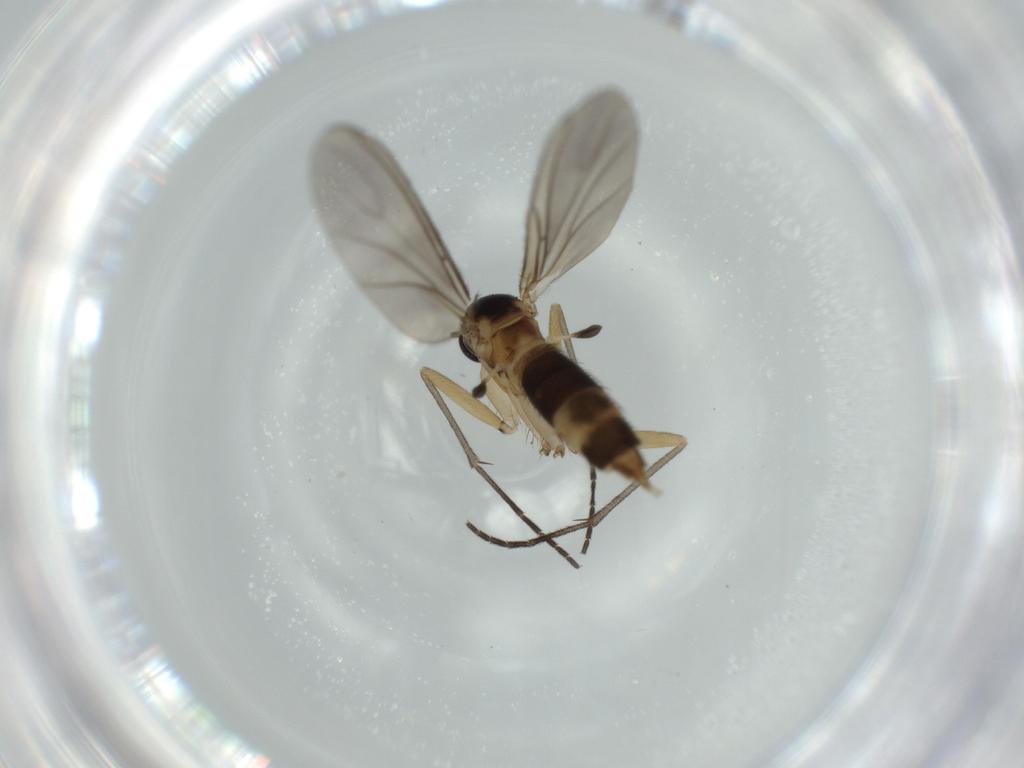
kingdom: Animalia
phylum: Arthropoda
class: Insecta
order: Diptera
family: Sciaridae
